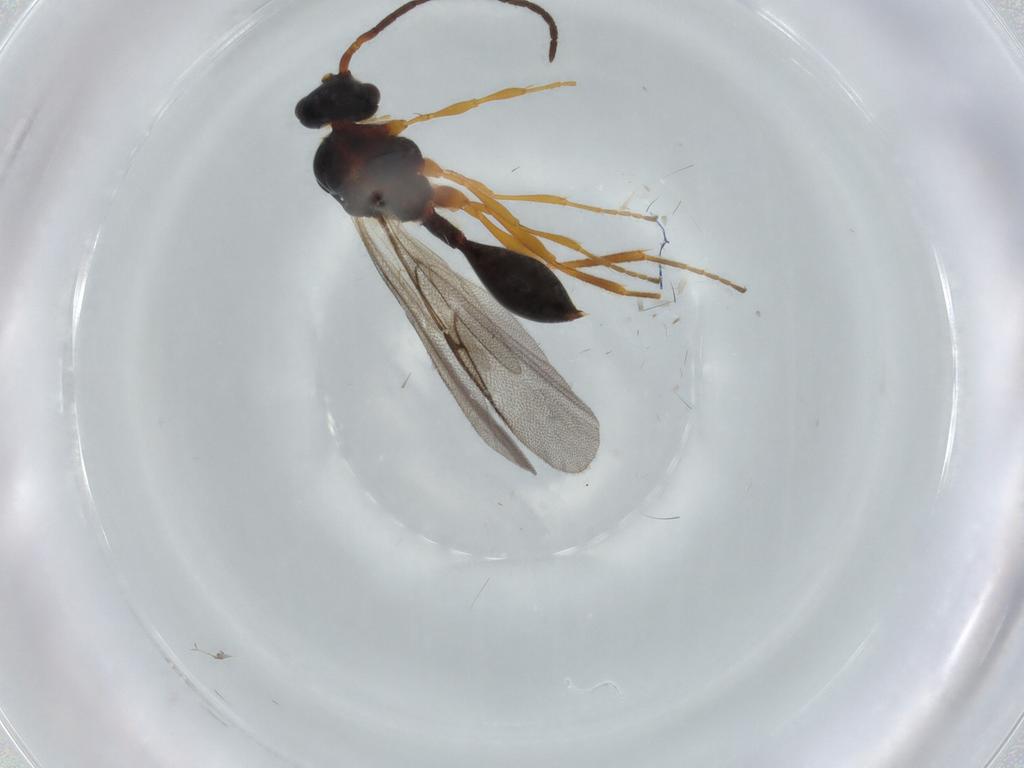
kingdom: Animalia
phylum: Arthropoda
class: Insecta
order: Hymenoptera
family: Diapriidae
